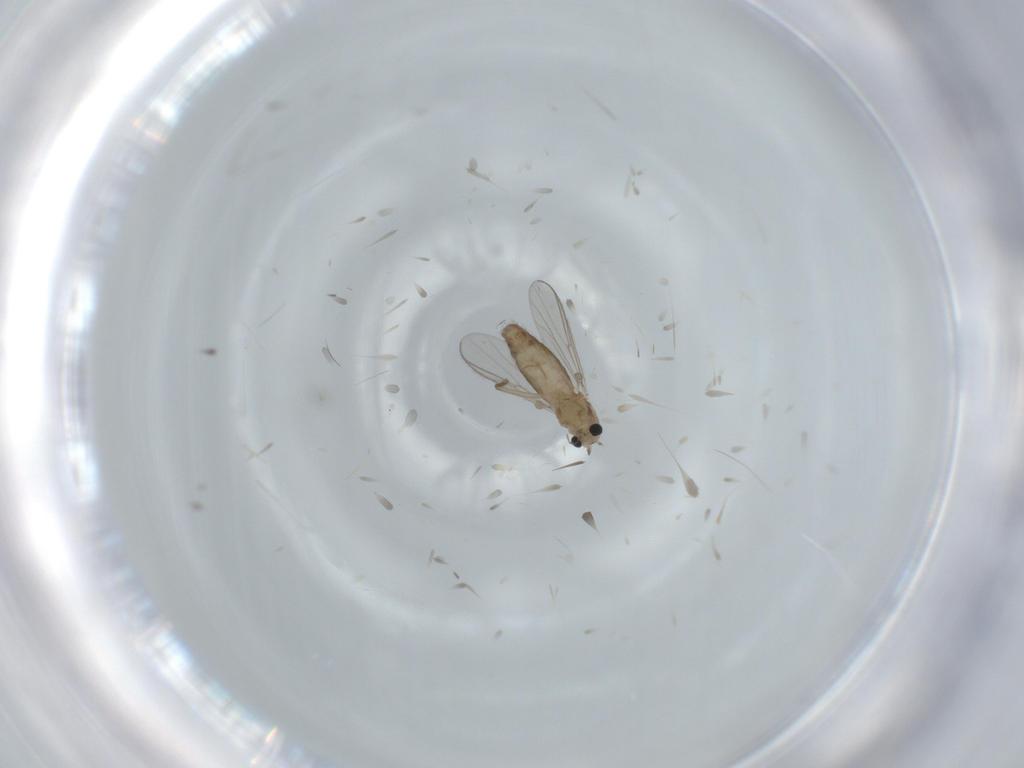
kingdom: Animalia
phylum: Arthropoda
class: Insecta
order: Diptera
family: Chironomidae
